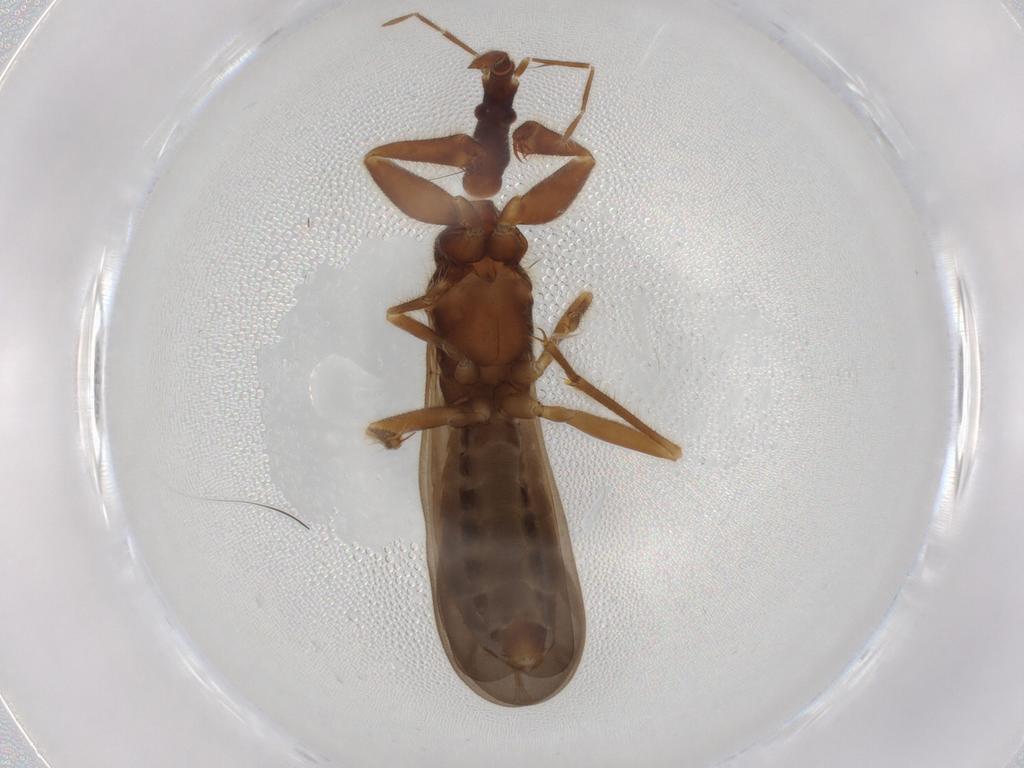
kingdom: Animalia
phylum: Arthropoda
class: Insecta
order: Hemiptera
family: Enicocephalidae
